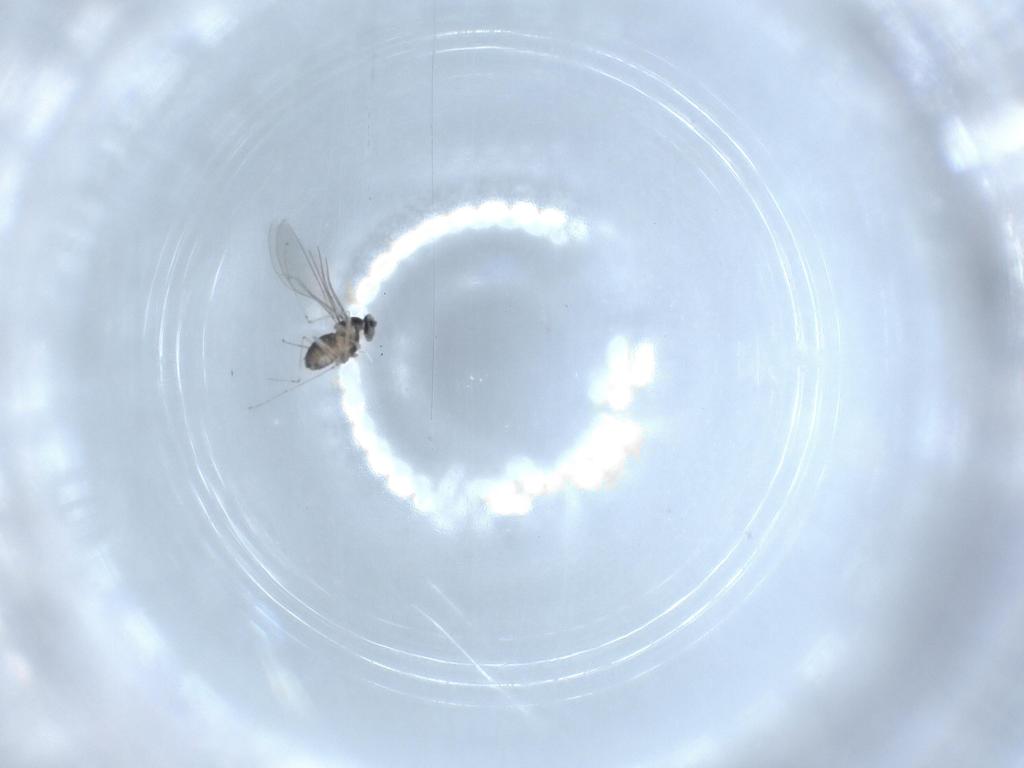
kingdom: Animalia
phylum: Arthropoda
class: Insecta
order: Diptera
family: Cecidomyiidae
